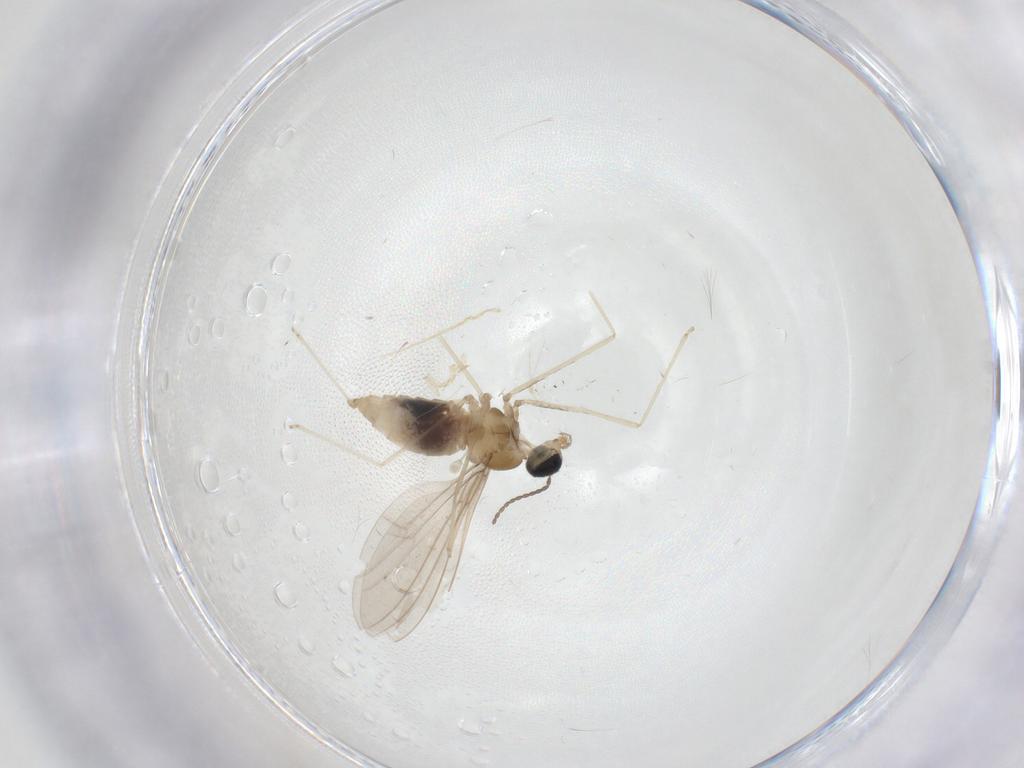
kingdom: Animalia
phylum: Arthropoda
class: Insecta
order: Diptera
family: Cecidomyiidae
